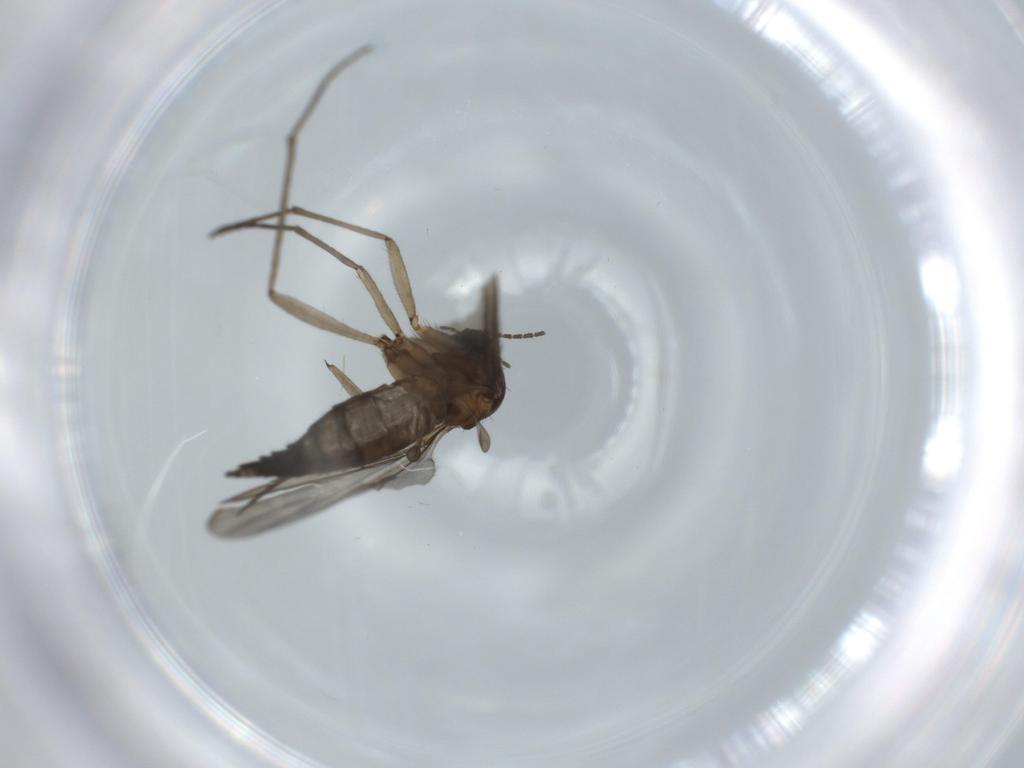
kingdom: Animalia
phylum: Arthropoda
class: Insecta
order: Diptera
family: Sciaridae
